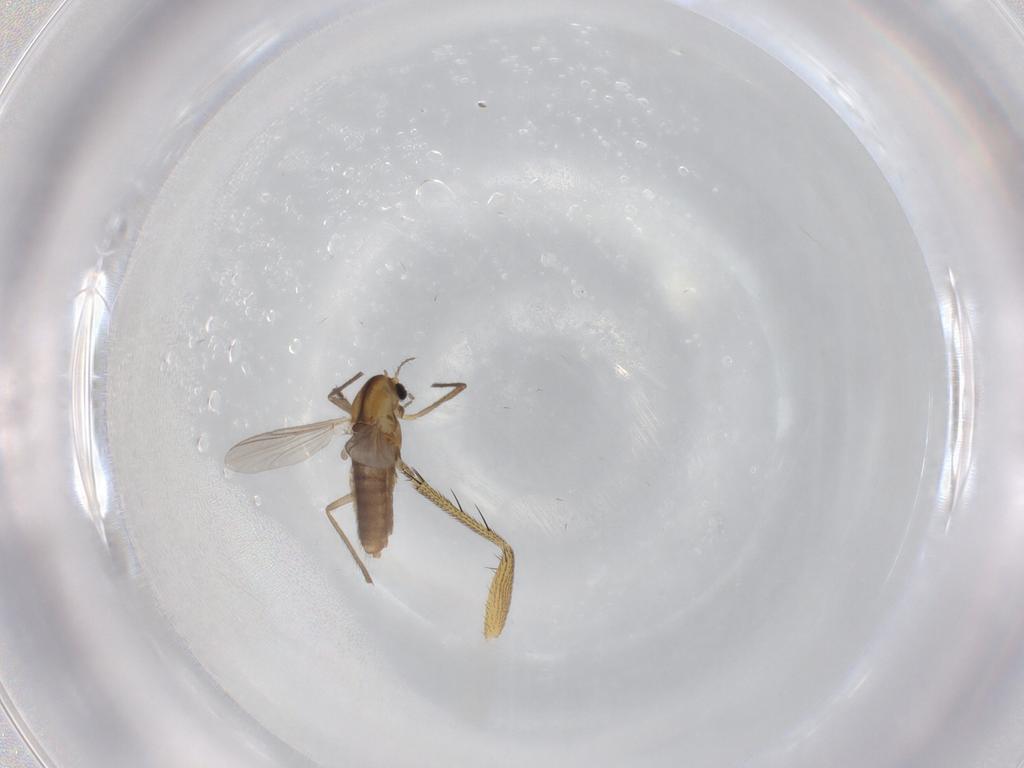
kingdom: Animalia
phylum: Arthropoda
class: Insecta
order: Diptera
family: Chironomidae
